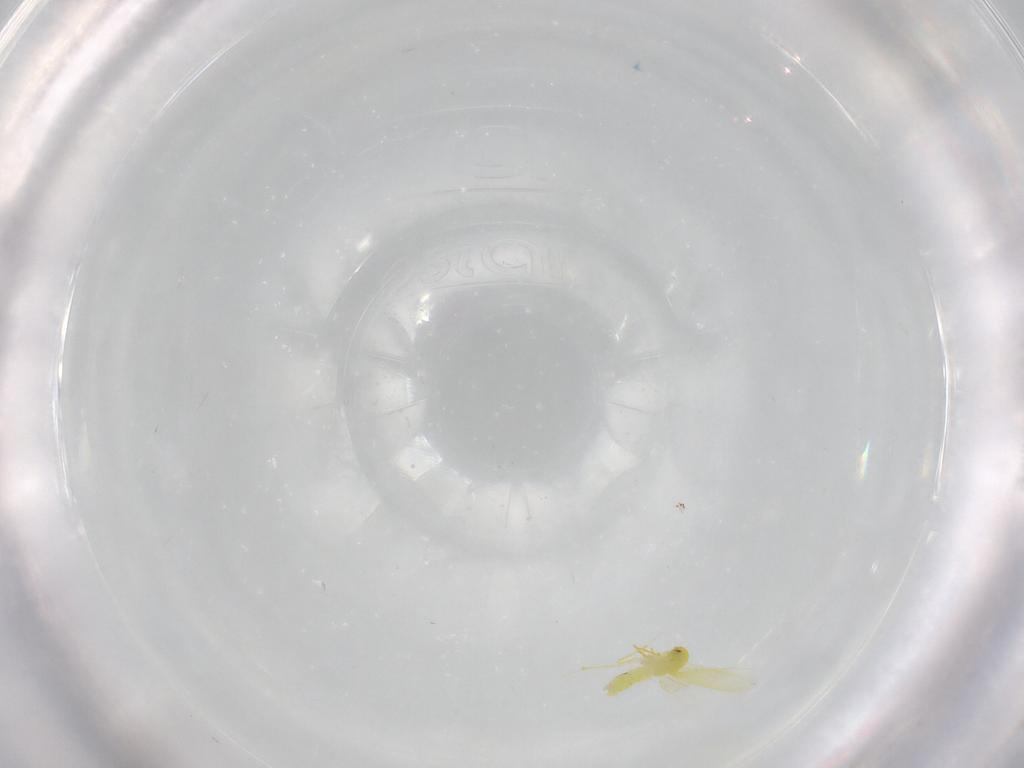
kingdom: Animalia
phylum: Arthropoda
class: Insecta
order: Hemiptera
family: Aleyrodidae
